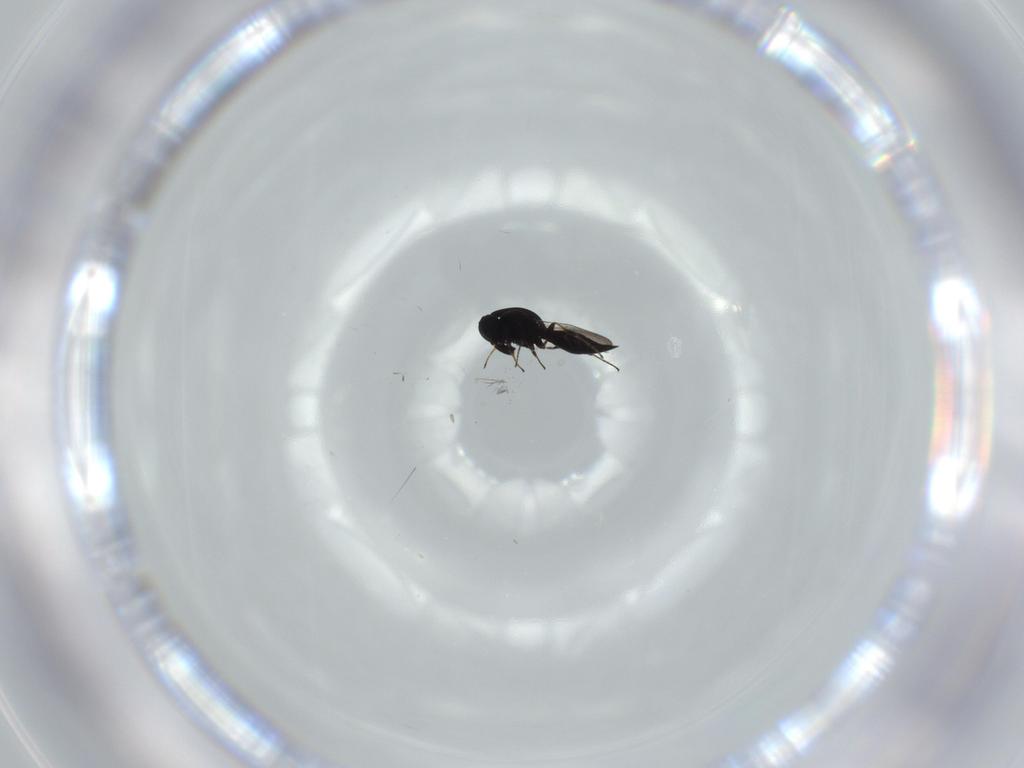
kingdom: Animalia
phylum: Arthropoda
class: Insecta
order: Hymenoptera
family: Platygastridae
